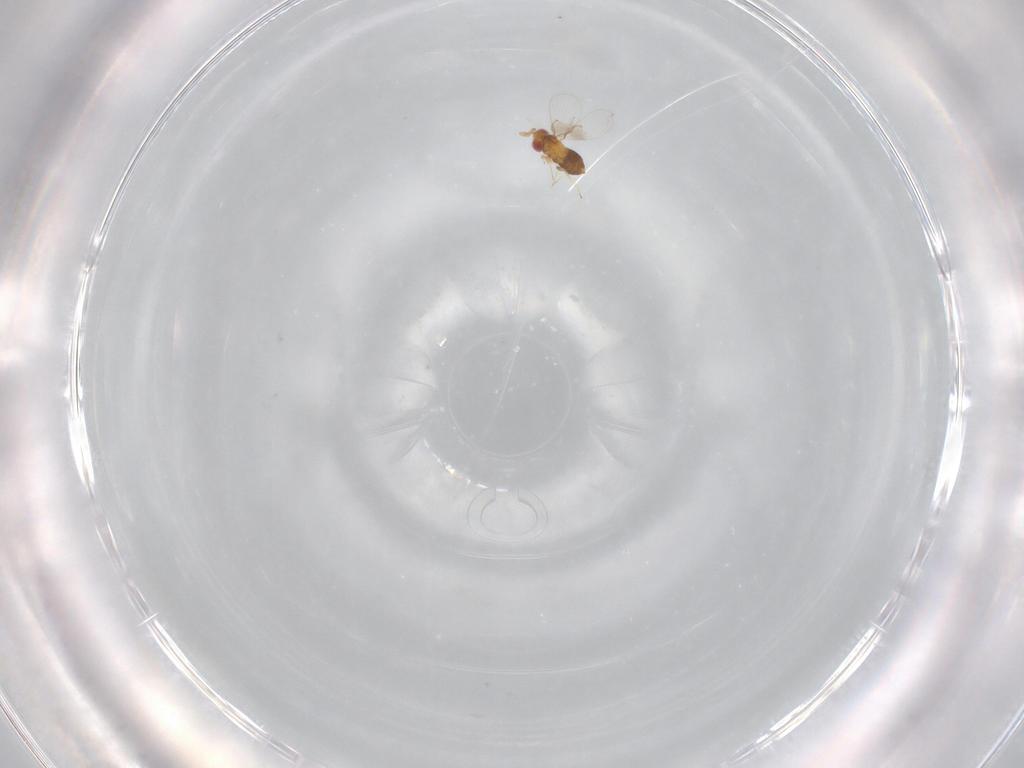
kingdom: Animalia
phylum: Arthropoda
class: Insecta
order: Hymenoptera
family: Trichogrammatidae
